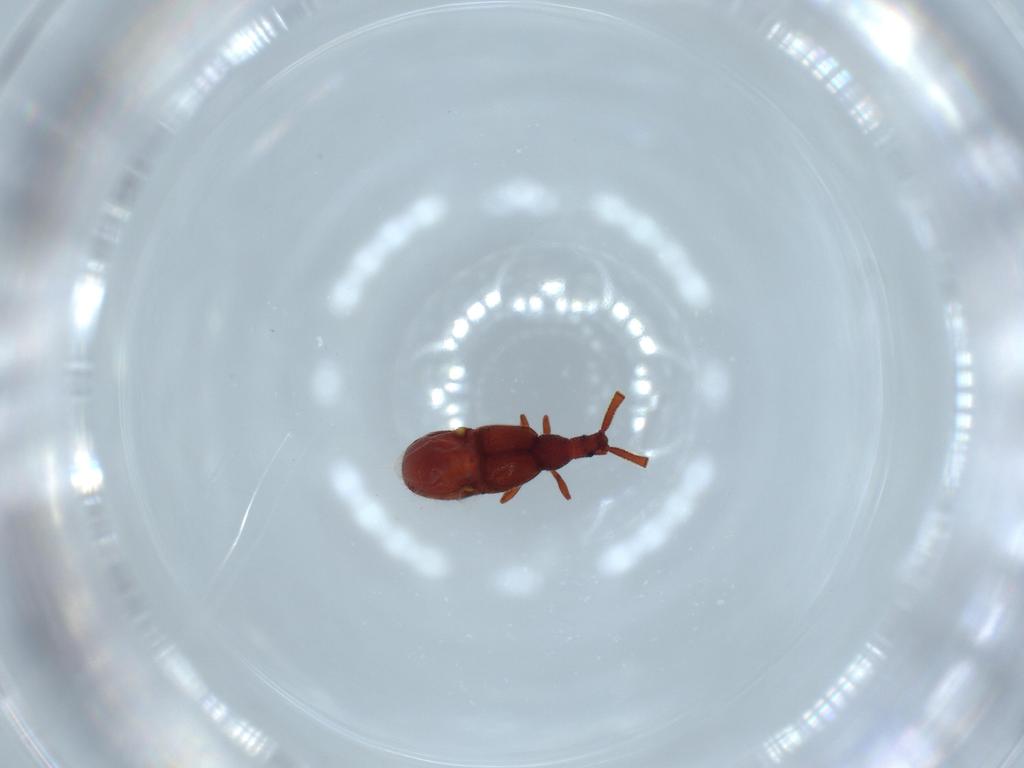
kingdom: Animalia
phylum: Arthropoda
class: Insecta
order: Coleoptera
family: Staphylinidae
